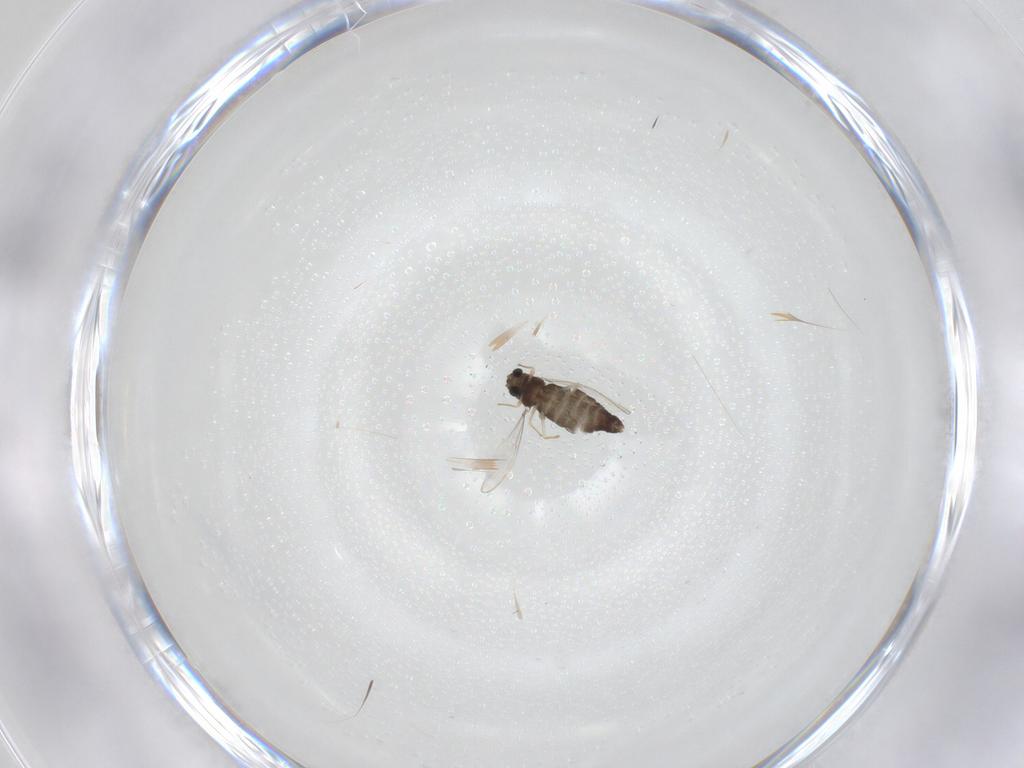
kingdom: Animalia
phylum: Arthropoda
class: Insecta
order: Diptera
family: Chironomidae
